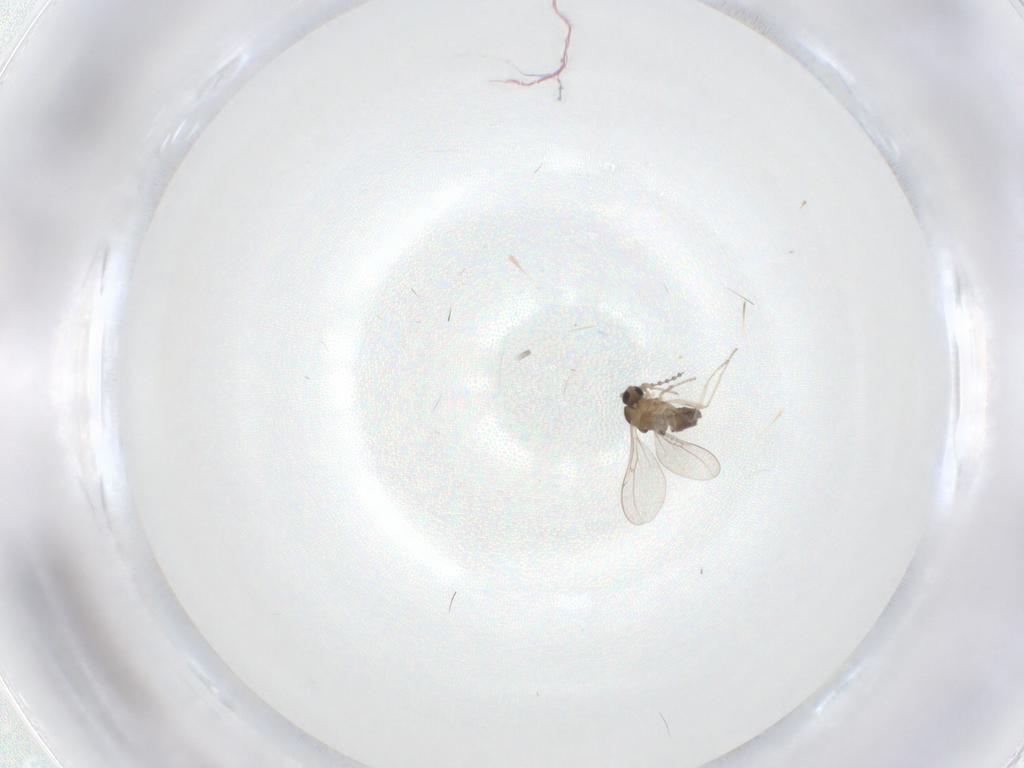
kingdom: Animalia
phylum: Arthropoda
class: Insecta
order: Diptera
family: Cecidomyiidae
